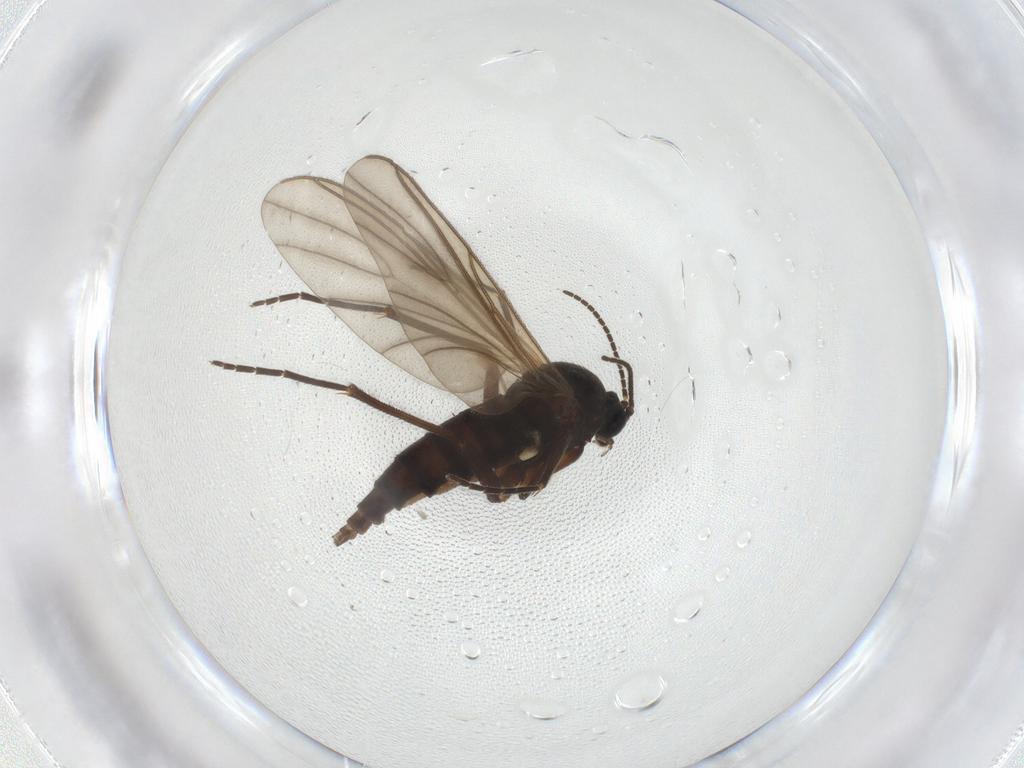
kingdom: Animalia
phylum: Arthropoda
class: Insecta
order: Diptera
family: Sciaridae
